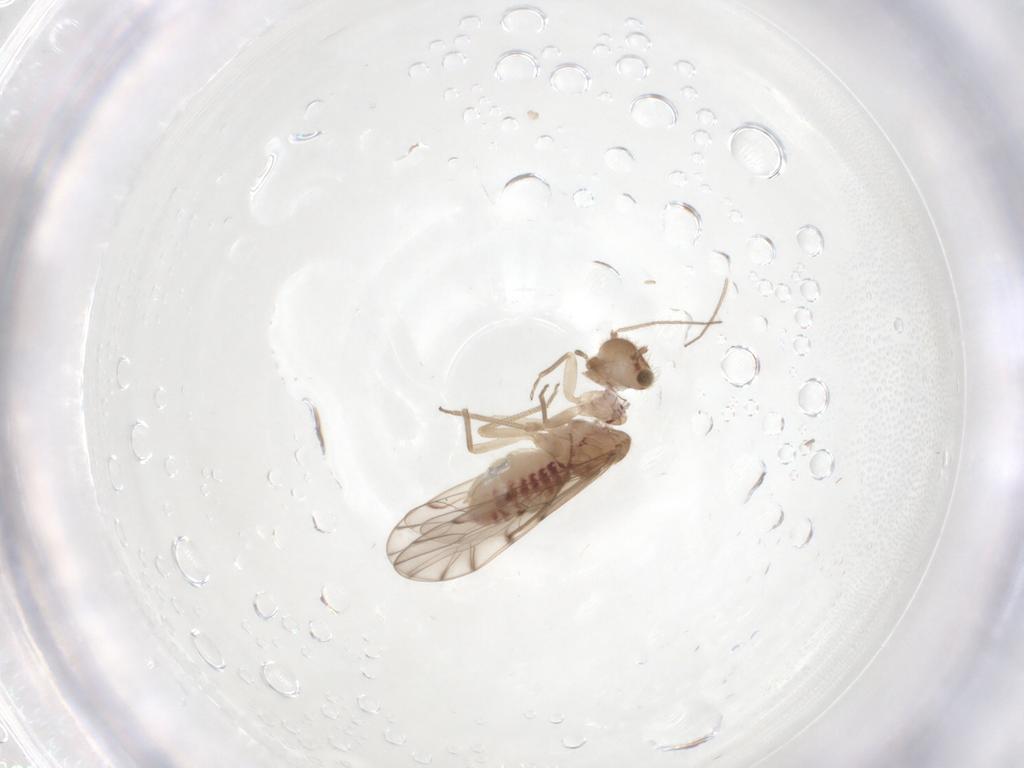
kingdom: Animalia
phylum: Arthropoda
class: Insecta
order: Diptera
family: Hybotidae
